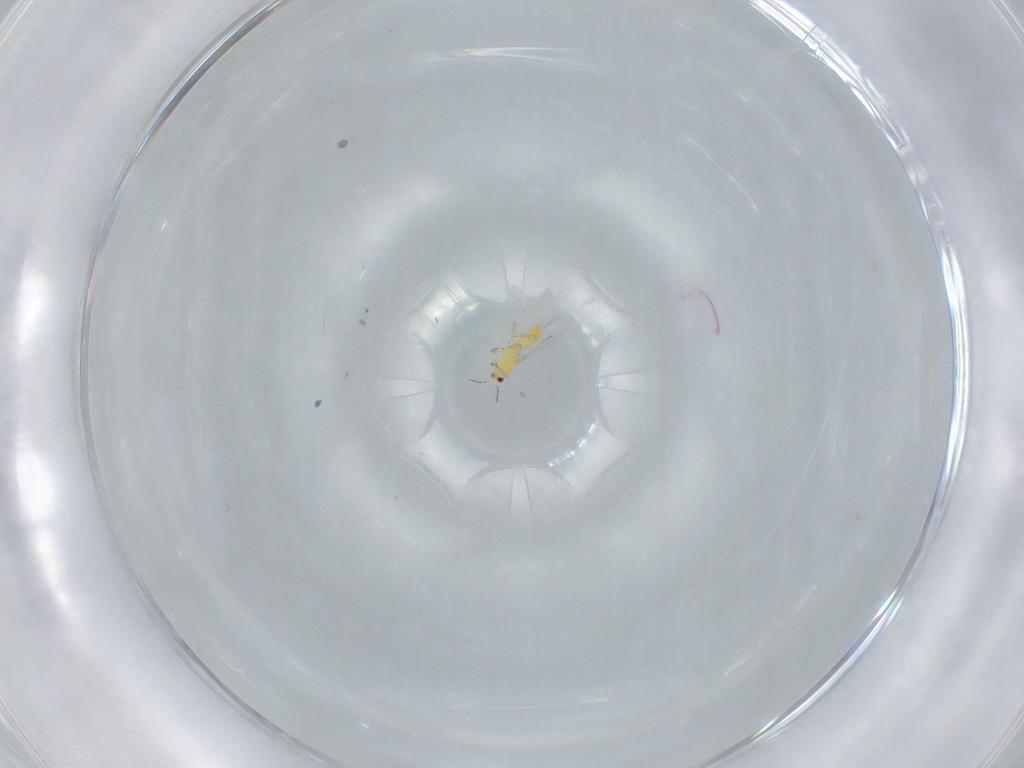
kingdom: Animalia
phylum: Arthropoda
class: Insecta
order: Thysanoptera
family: Thripidae
